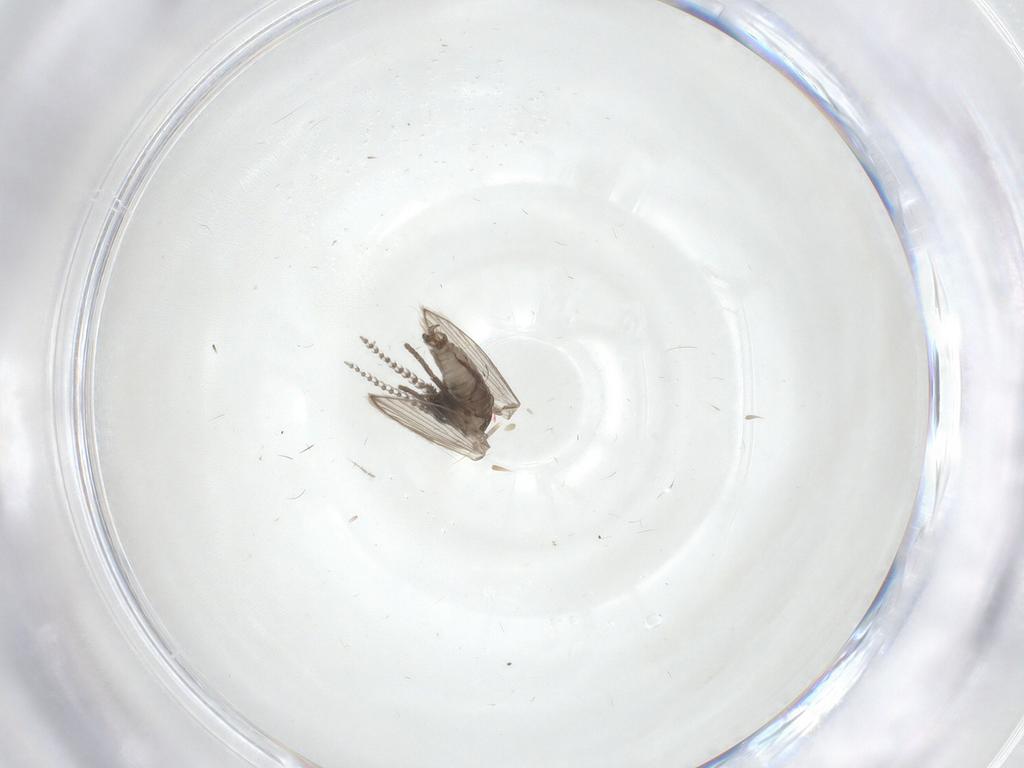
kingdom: Animalia
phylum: Arthropoda
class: Insecta
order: Diptera
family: Psychodidae
